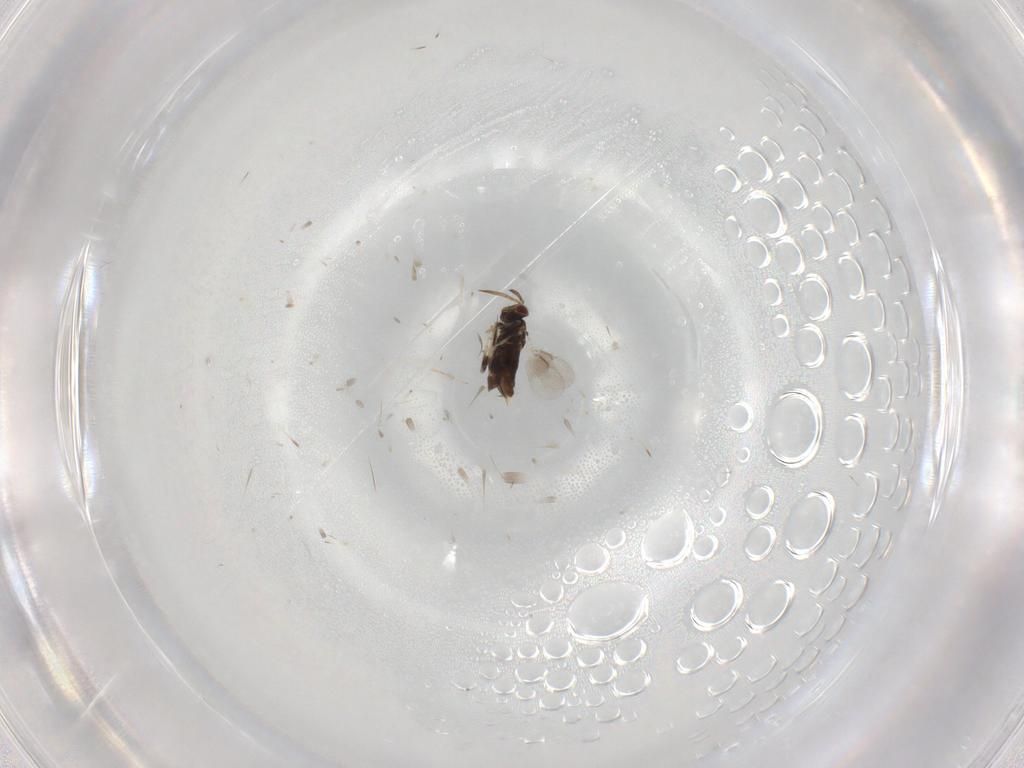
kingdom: Animalia
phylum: Arthropoda
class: Insecta
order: Hymenoptera
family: Aphelinidae
